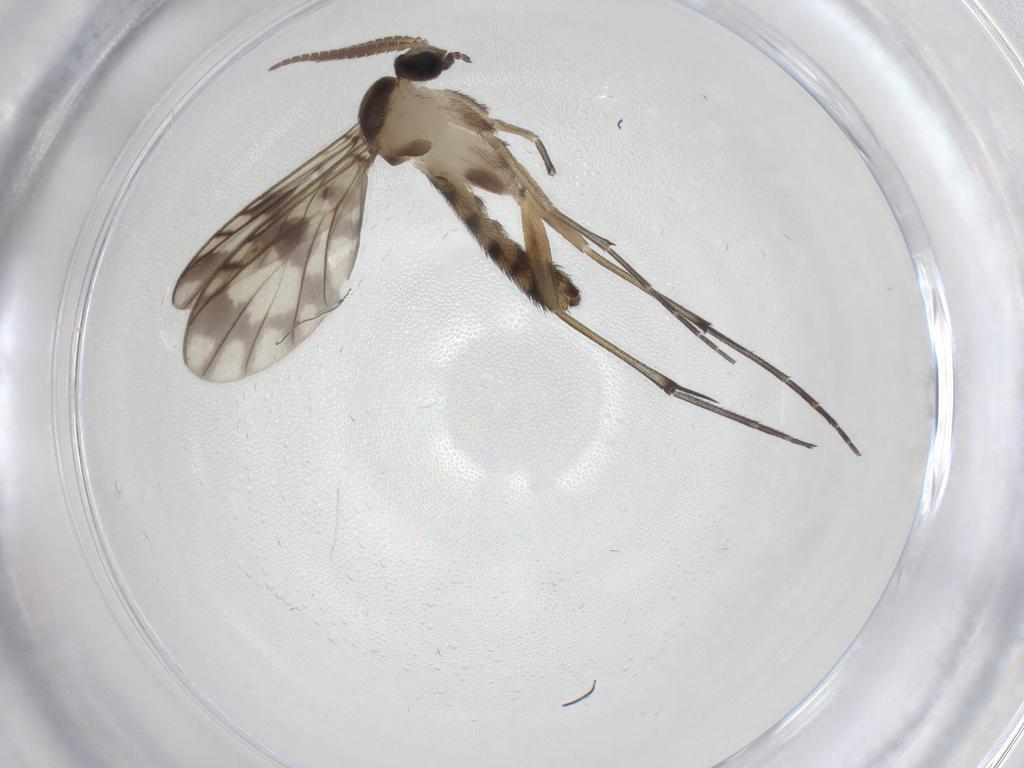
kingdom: Animalia
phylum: Arthropoda
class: Insecta
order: Diptera
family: Keroplatidae
